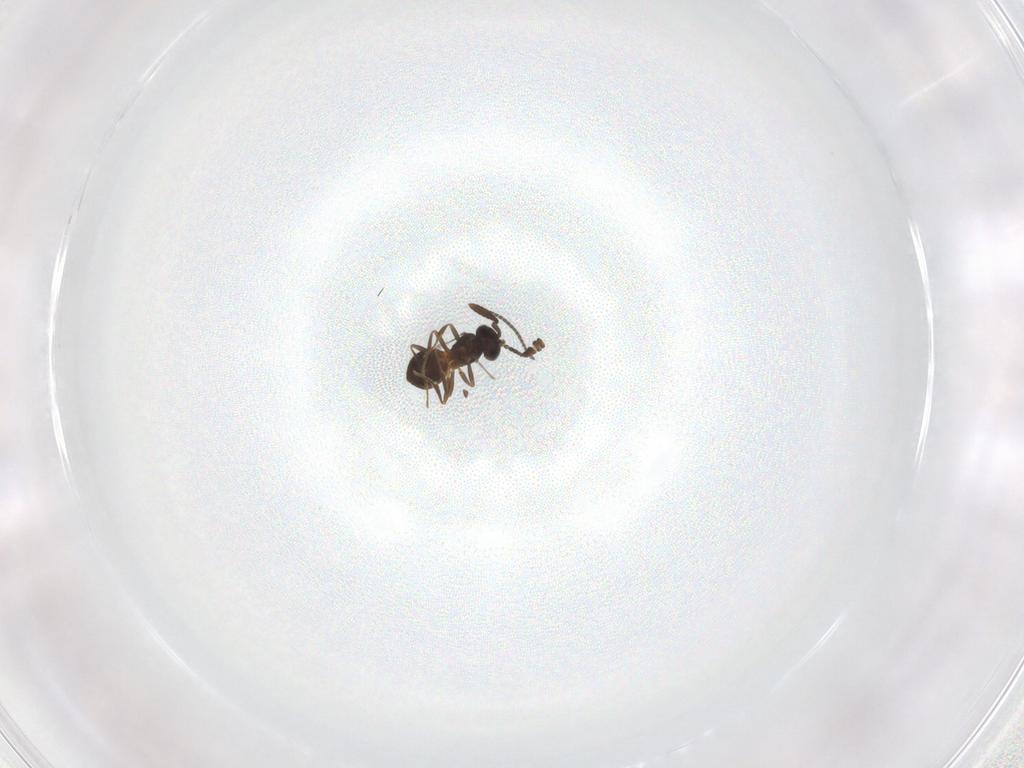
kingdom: Animalia
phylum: Arthropoda
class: Insecta
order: Hymenoptera
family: Scelionidae
